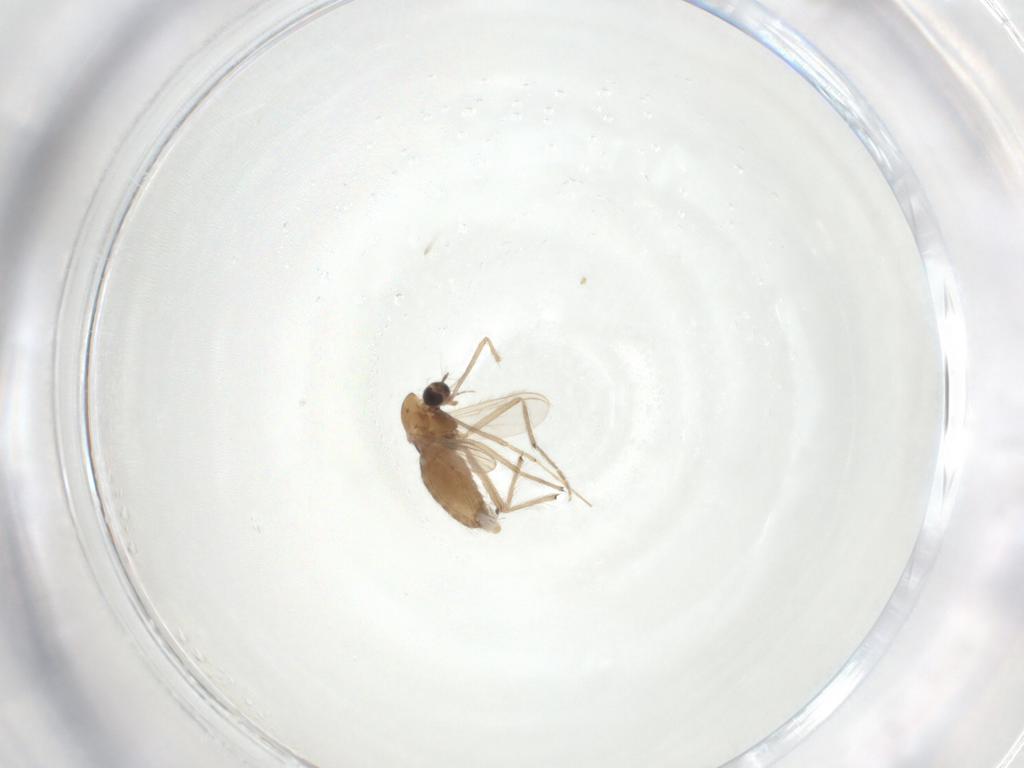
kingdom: Animalia
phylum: Arthropoda
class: Insecta
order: Diptera
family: Chironomidae
